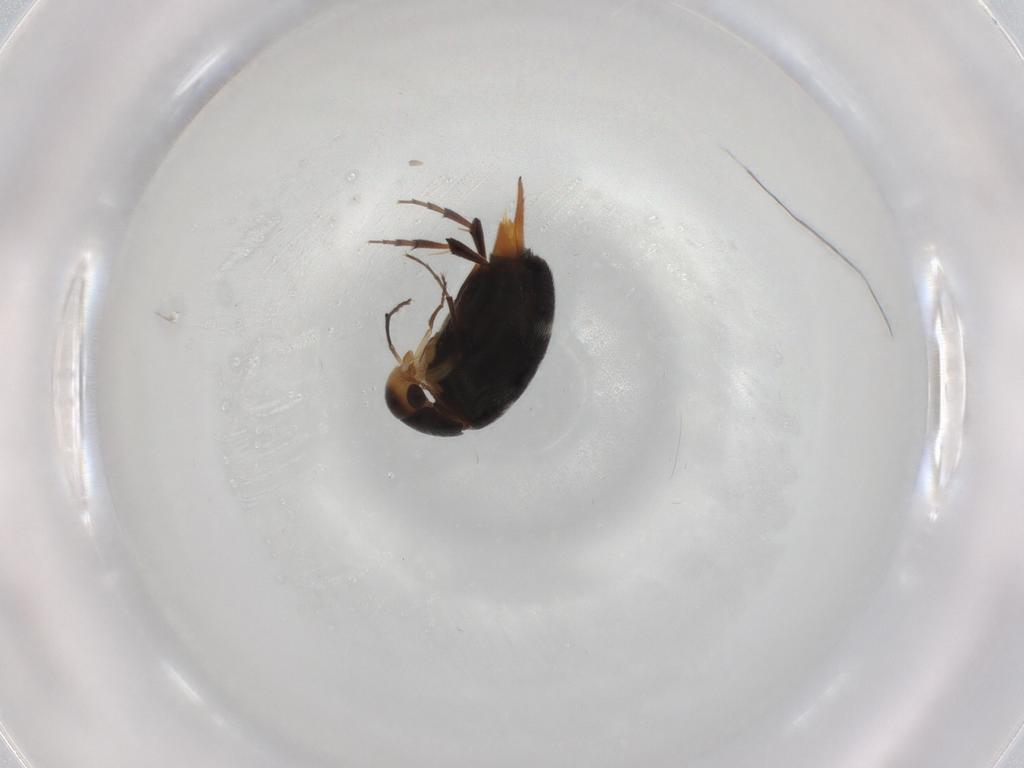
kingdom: Animalia
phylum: Arthropoda
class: Insecta
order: Coleoptera
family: Mordellidae
